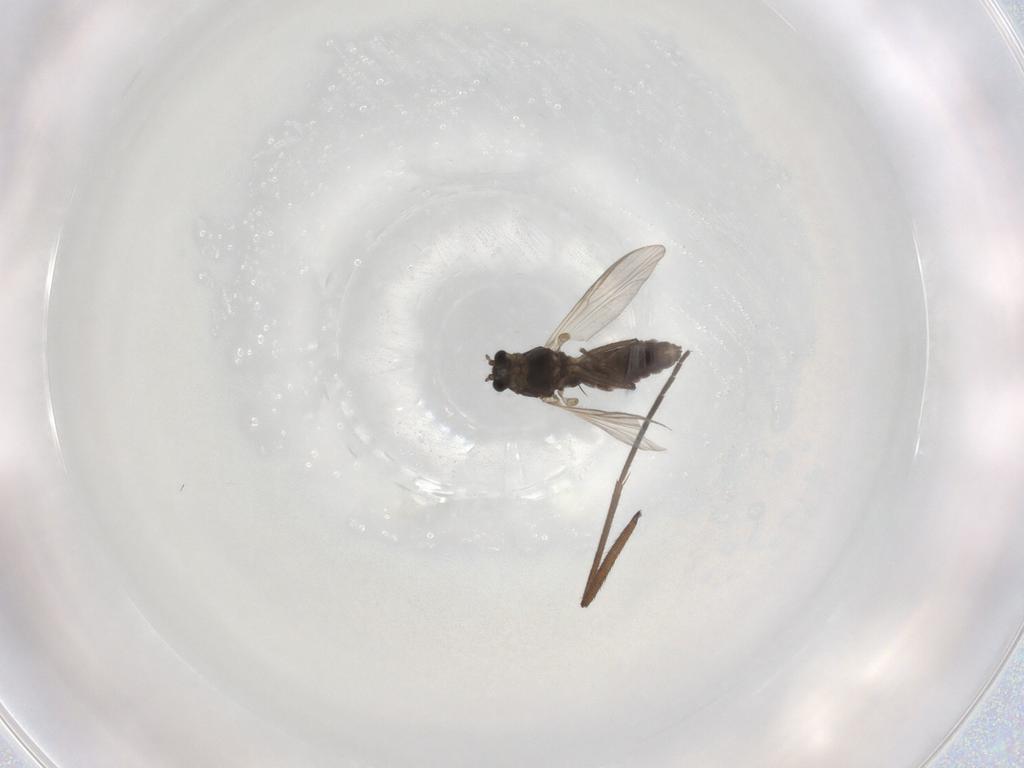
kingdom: Animalia
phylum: Arthropoda
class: Insecta
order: Diptera
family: Chironomidae
